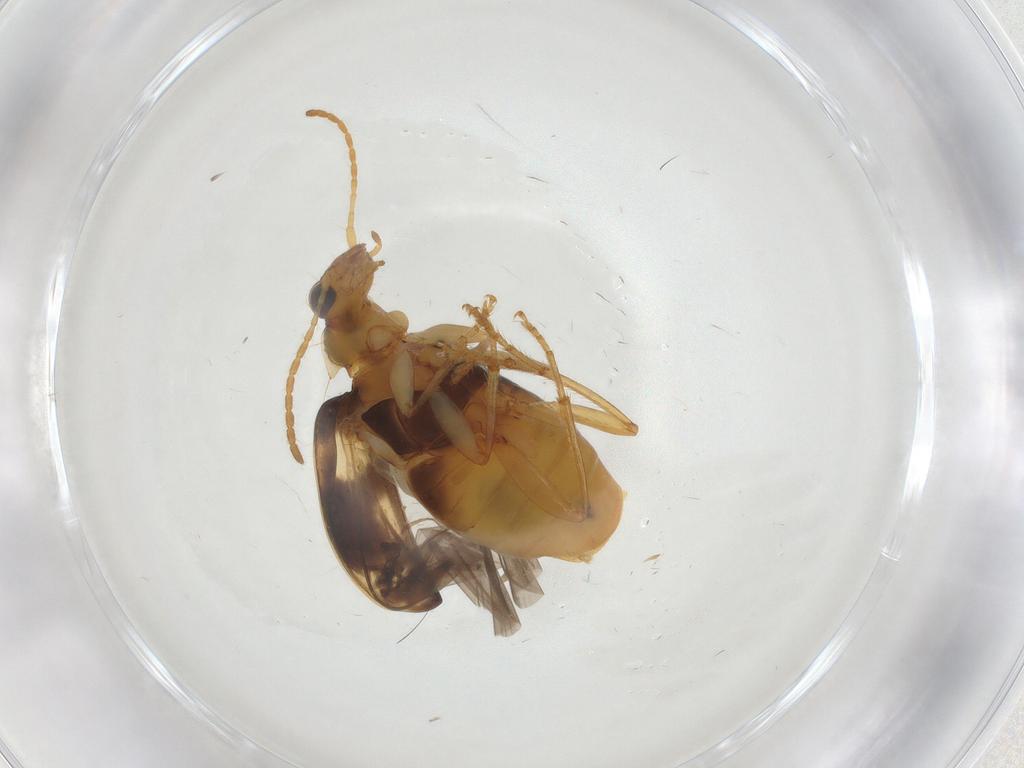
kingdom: Animalia
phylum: Arthropoda
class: Insecta
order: Coleoptera
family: Carabidae
